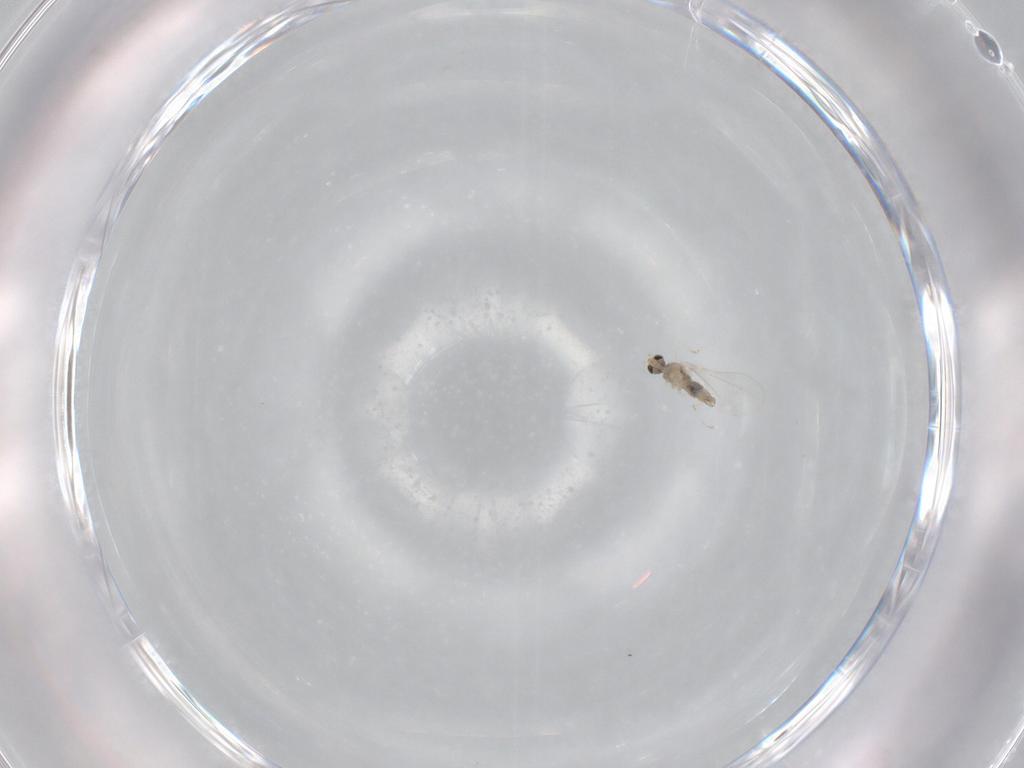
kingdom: Animalia
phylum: Arthropoda
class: Insecta
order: Diptera
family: Cecidomyiidae
